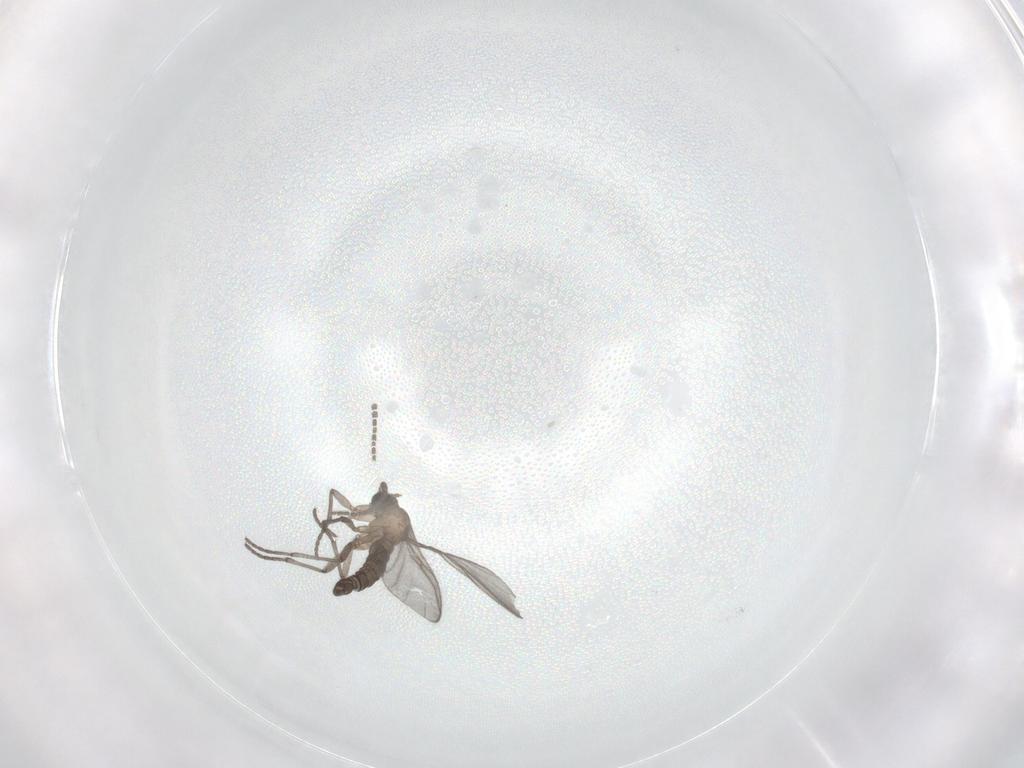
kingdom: Animalia
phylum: Arthropoda
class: Insecta
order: Diptera
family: Sciaridae
